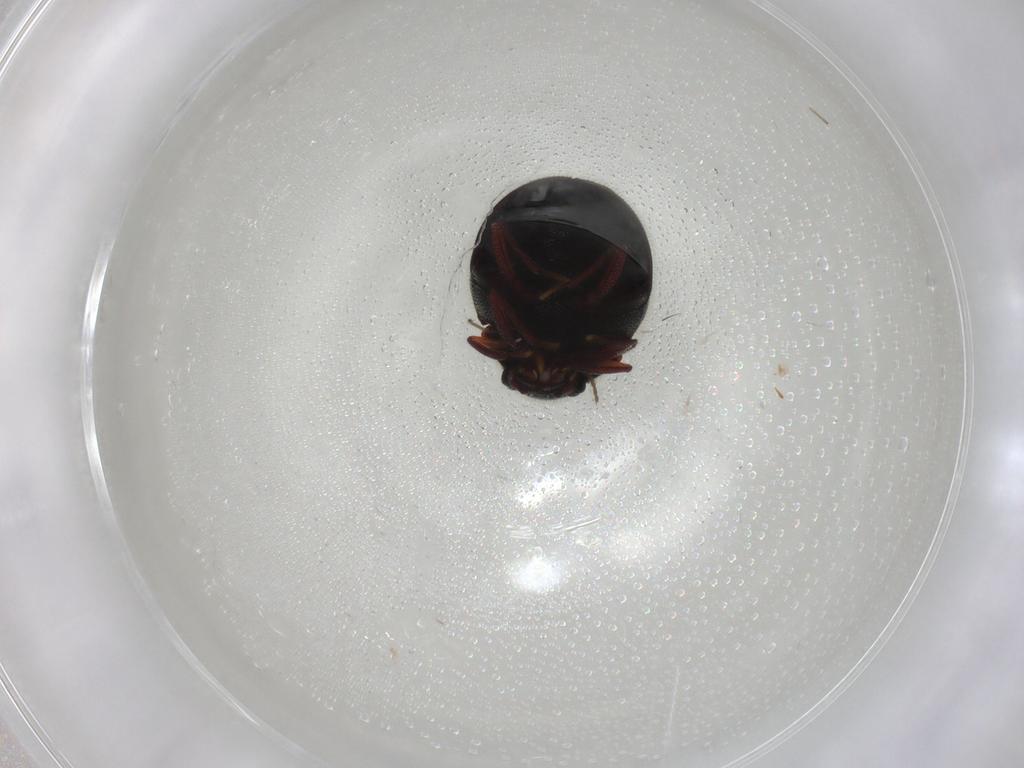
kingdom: Animalia
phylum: Arthropoda
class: Insecta
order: Coleoptera
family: Ptinidae
